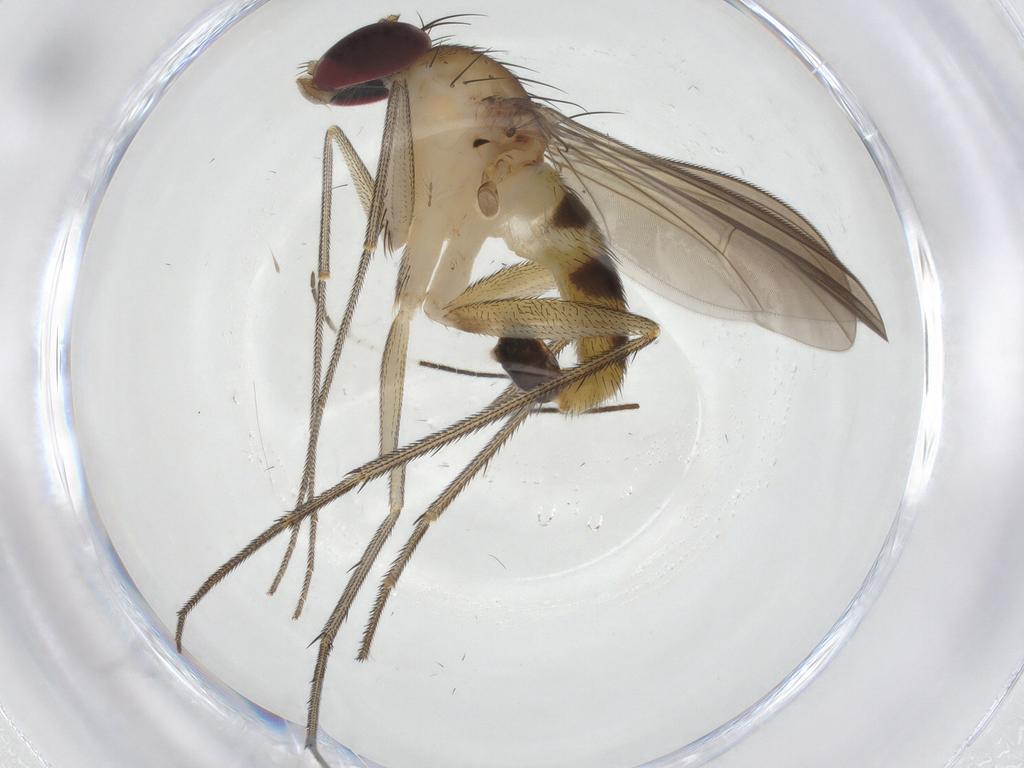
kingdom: Animalia
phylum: Arthropoda
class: Insecta
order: Diptera
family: Dolichopodidae
